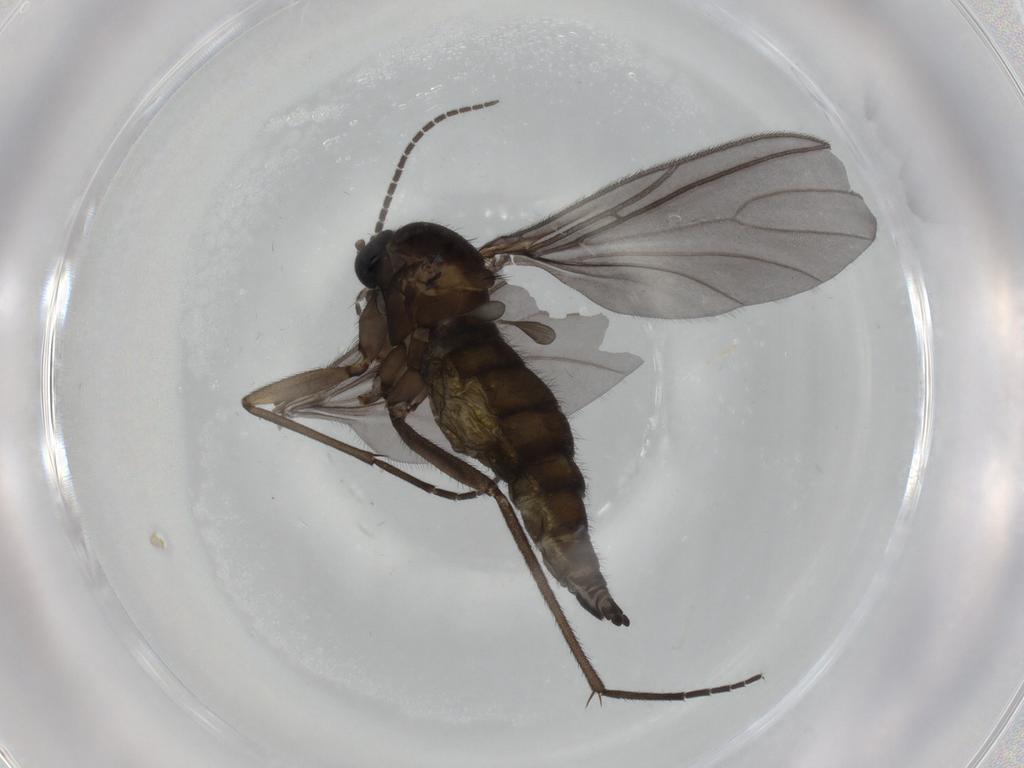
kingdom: Animalia
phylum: Arthropoda
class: Insecta
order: Diptera
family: Sciaridae
